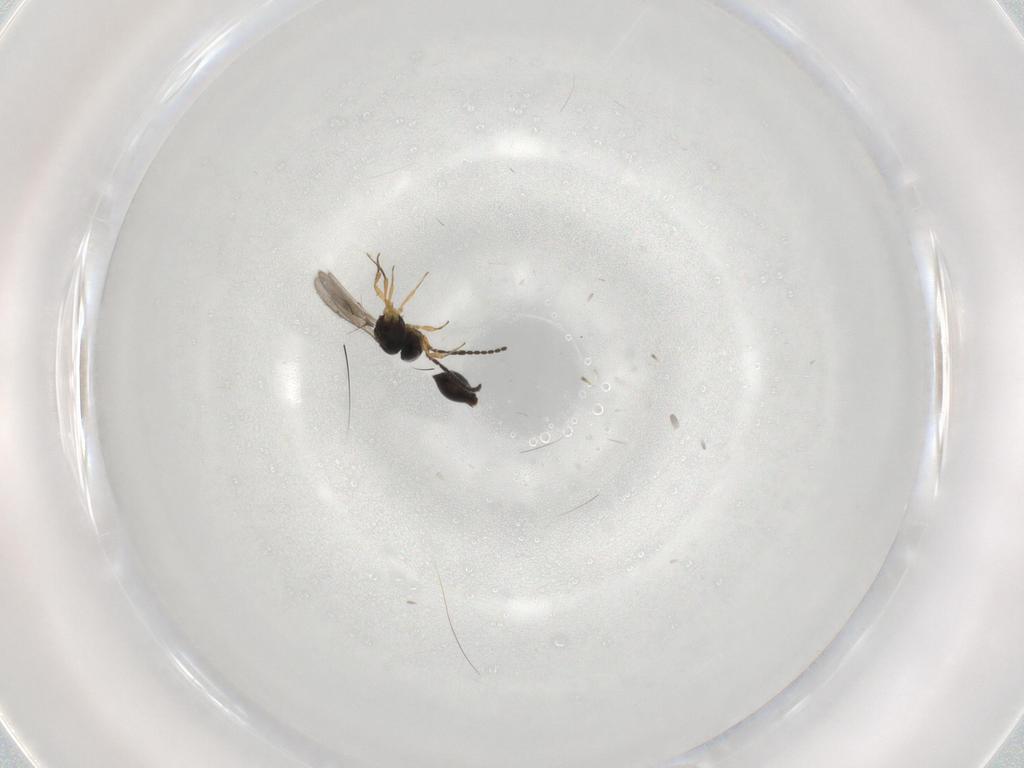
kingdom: Animalia
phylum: Arthropoda
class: Insecta
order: Hymenoptera
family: Scelionidae
